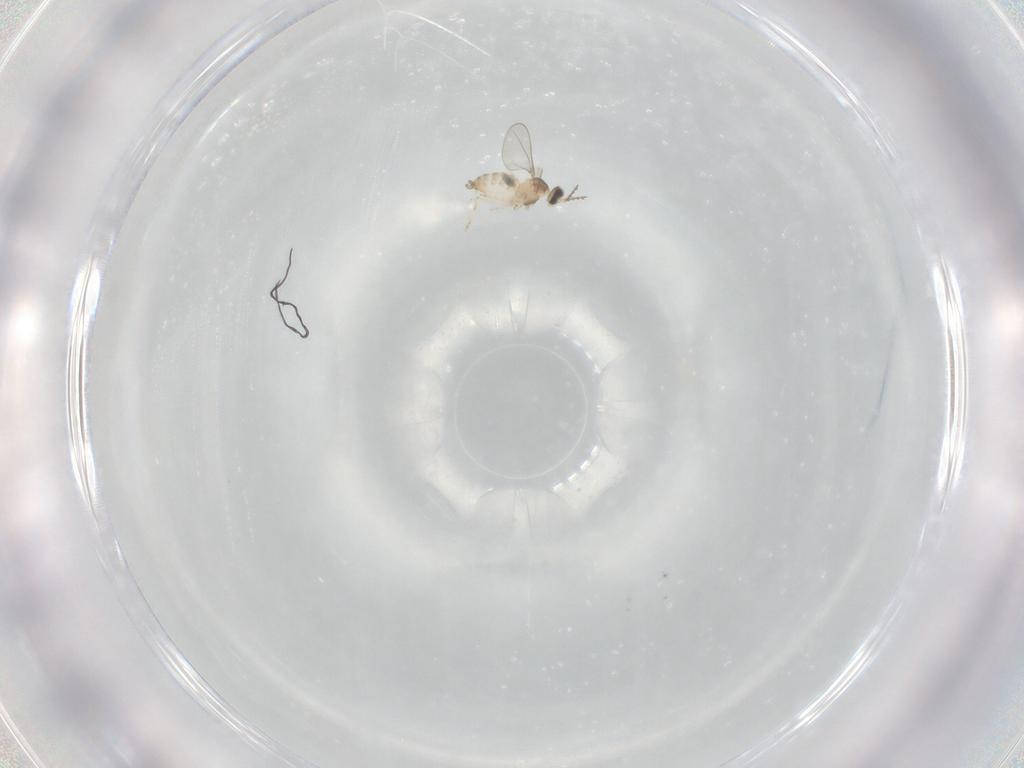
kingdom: Animalia
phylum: Arthropoda
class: Insecta
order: Diptera
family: Cecidomyiidae
